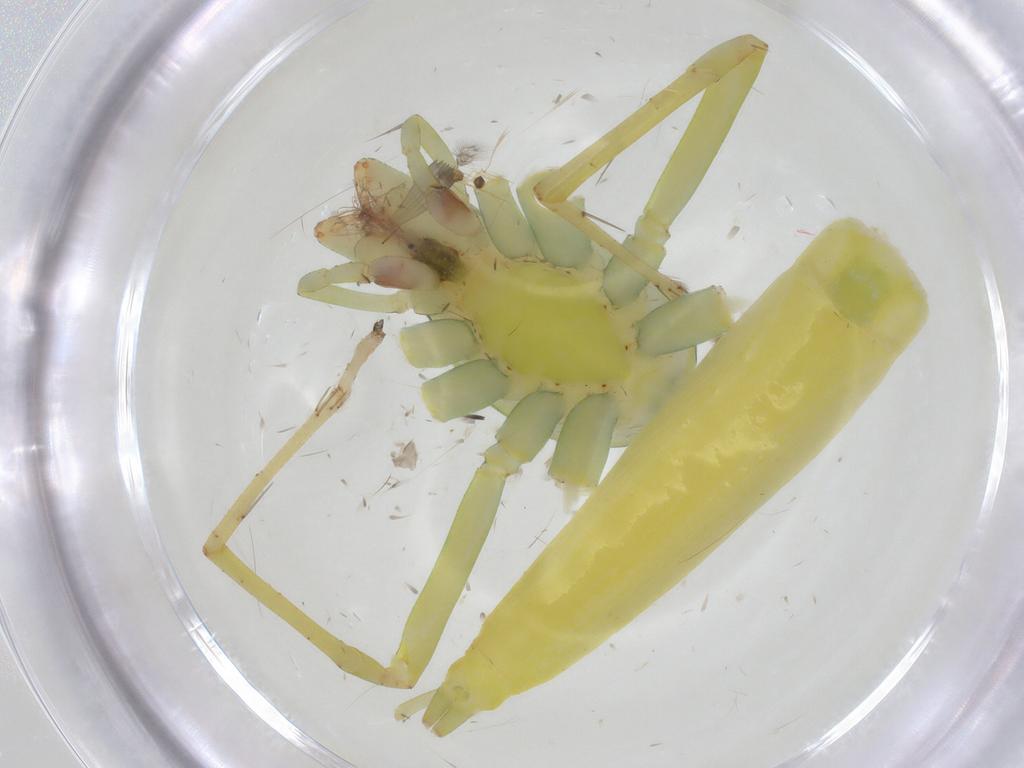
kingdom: Animalia
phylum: Arthropoda
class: Arachnida
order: Araneae
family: Clubionidae
